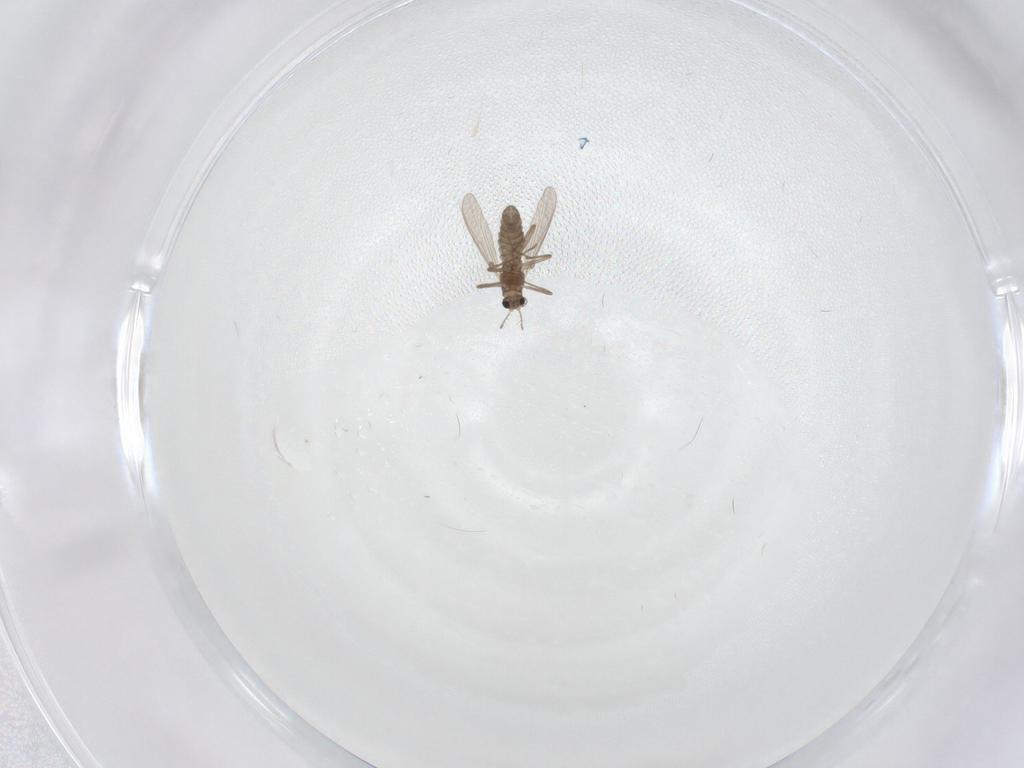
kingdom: Animalia
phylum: Arthropoda
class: Insecta
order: Diptera
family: Chironomidae
